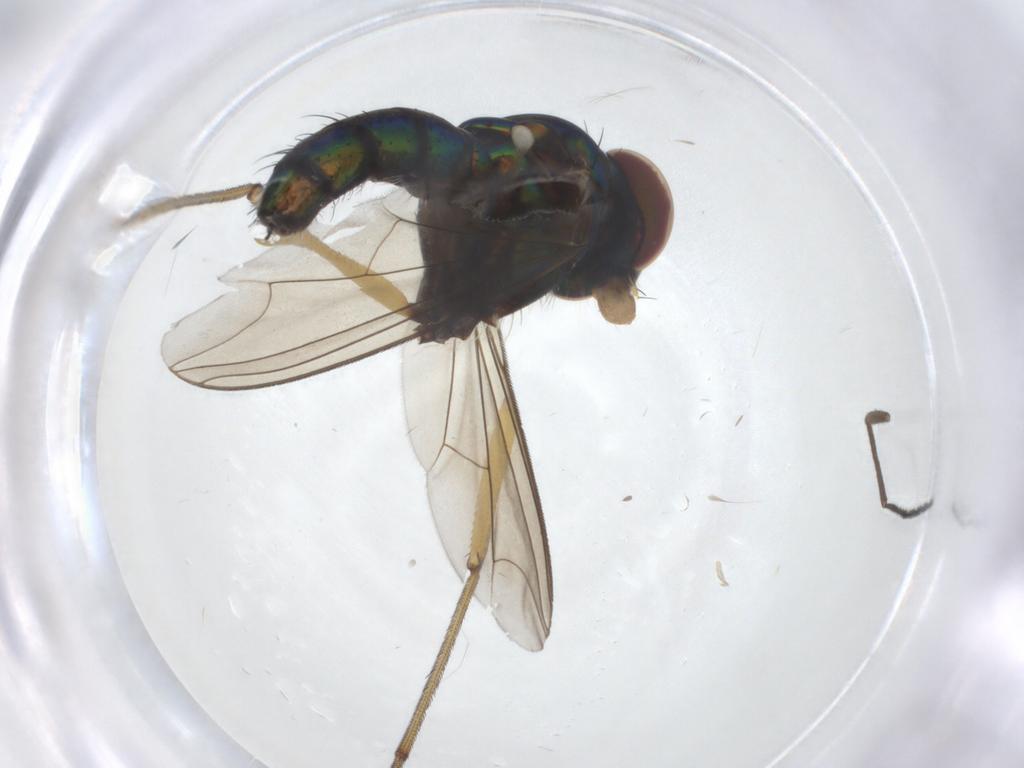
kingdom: Animalia
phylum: Arthropoda
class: Insecta
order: Diptera
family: Dolichopodidae
